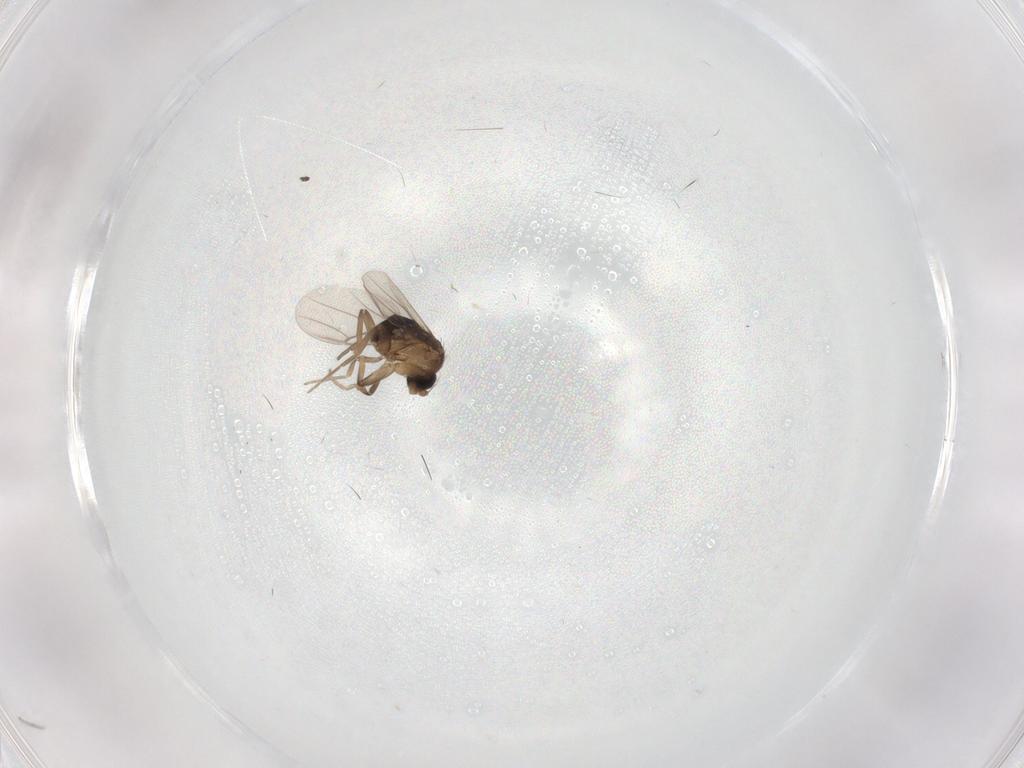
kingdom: Animalia
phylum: Arthropoda
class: Insecta
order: Diptera
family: Phoridae
